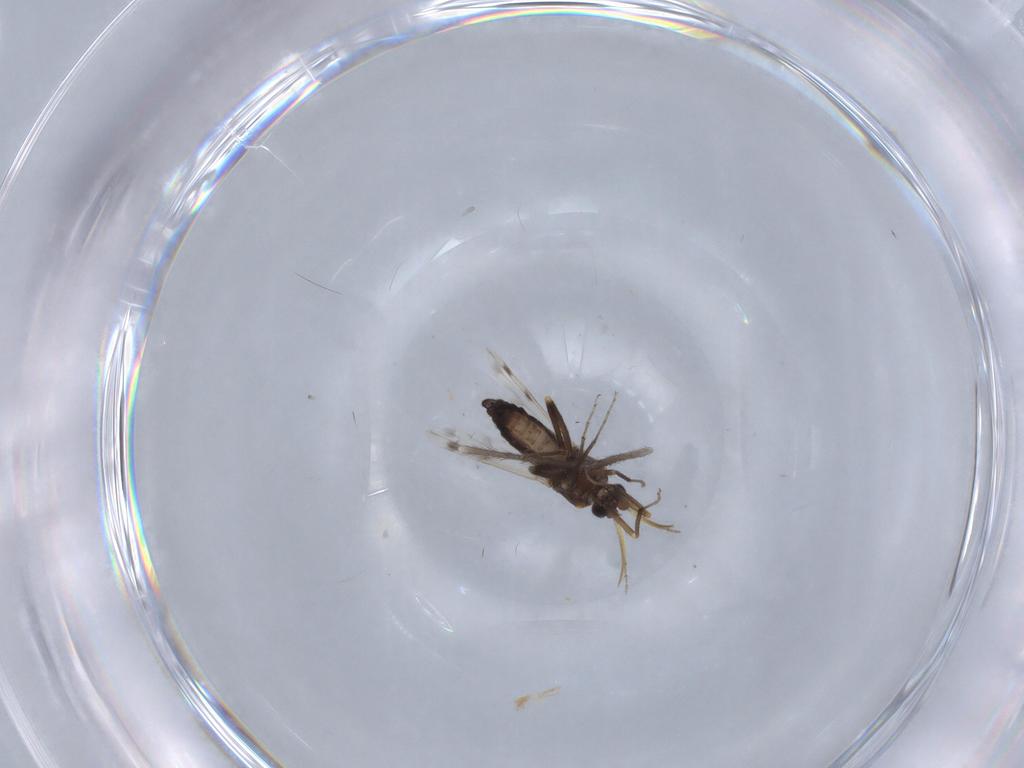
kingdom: Animalia
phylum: Arthropoda
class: Insecta
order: Diptera
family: Ceratopogonidae
